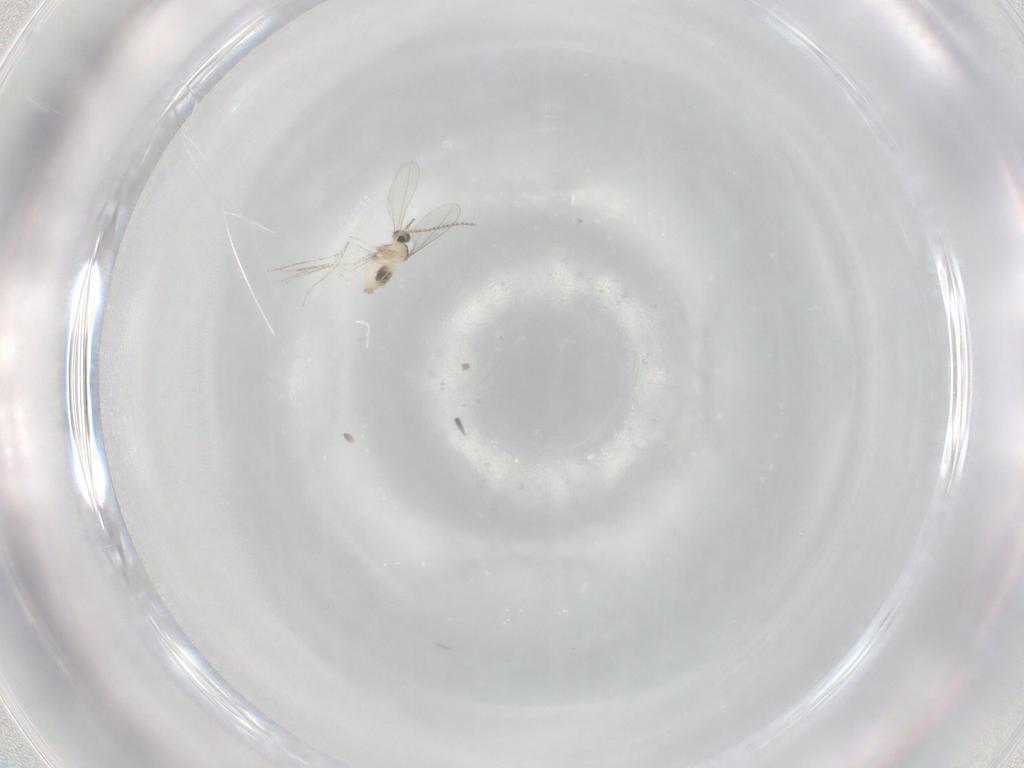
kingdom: Animalia
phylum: Arthropoda
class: Insecta
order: Diptera
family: Cecidomyiidae
